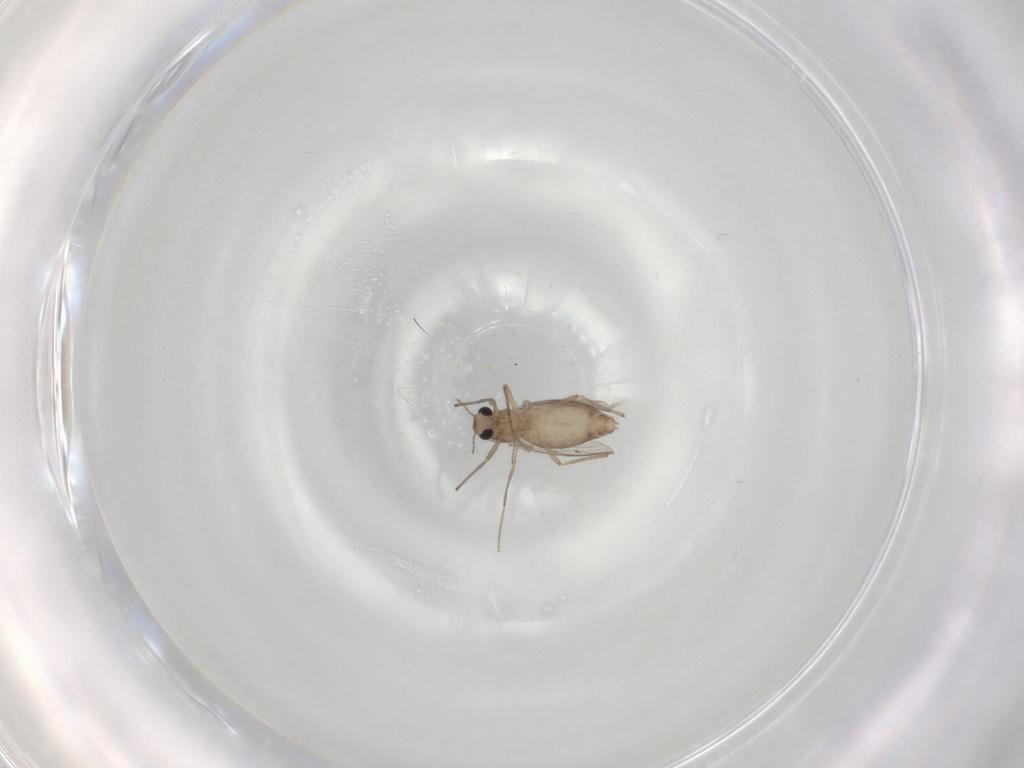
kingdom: Animalia
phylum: Arthropoda
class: Insecta
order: Diptera
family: Chironomidae
